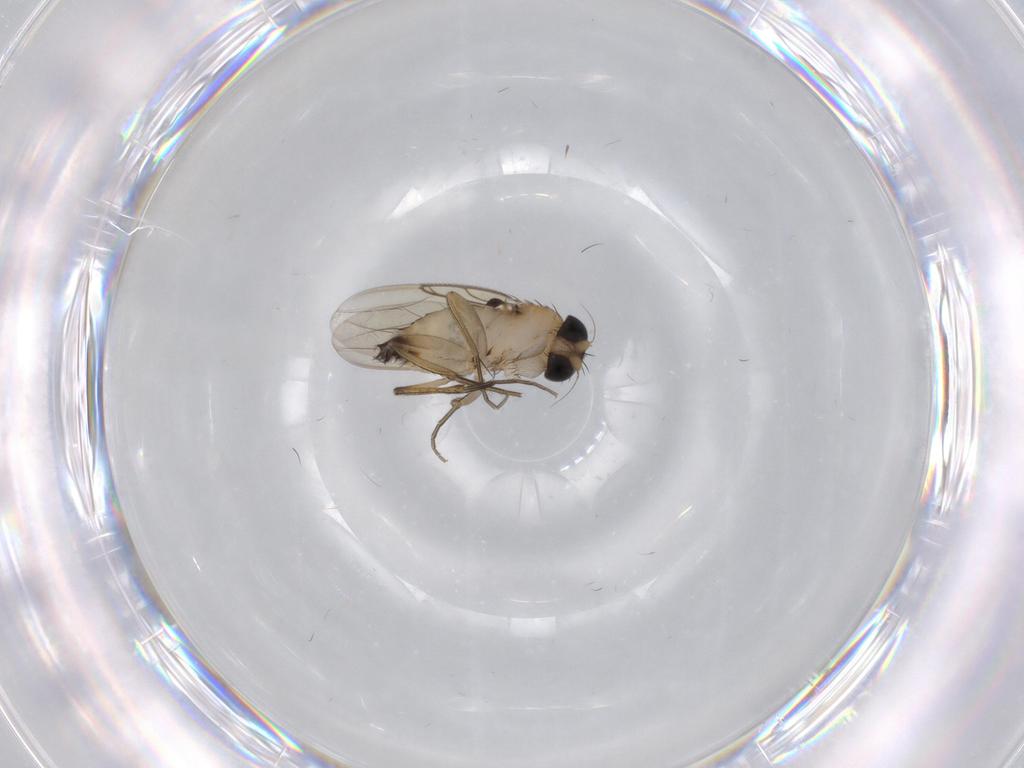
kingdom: Animalia
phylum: Arthropoda
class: Insecta
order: Diptera
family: Phoridae
